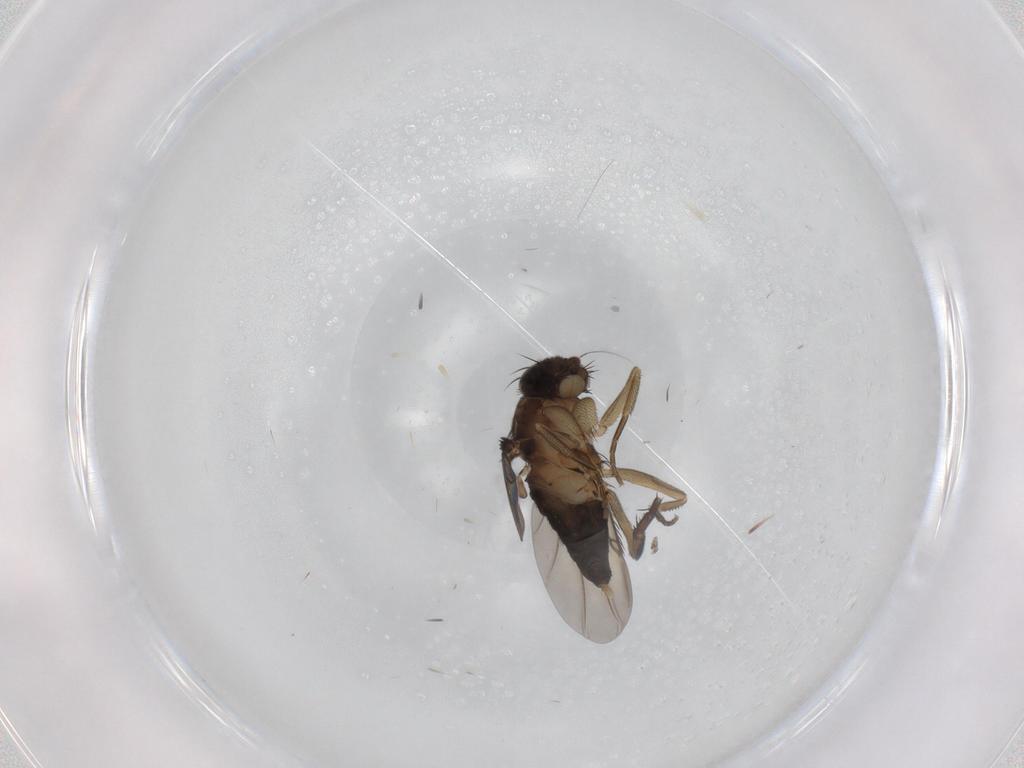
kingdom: Animalia
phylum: Arthropoda
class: Insecta
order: Diptera
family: Phoridae
